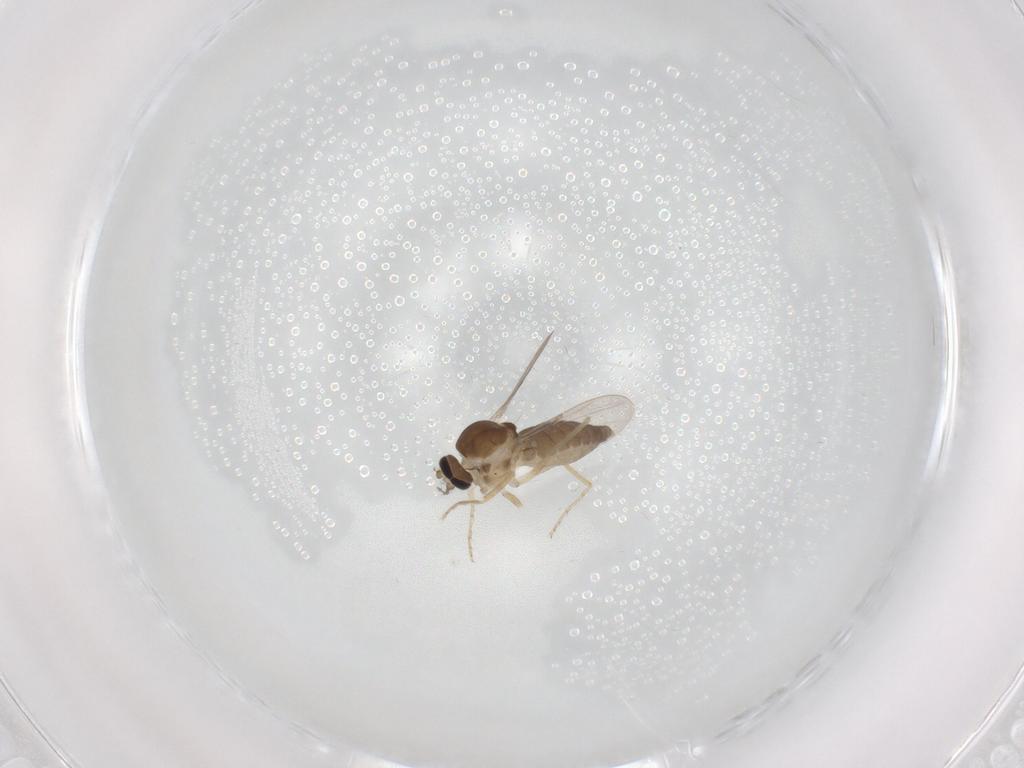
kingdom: Animalia
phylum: Arthropoda
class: Insecta
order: Diptera
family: Ceratopogonidae
